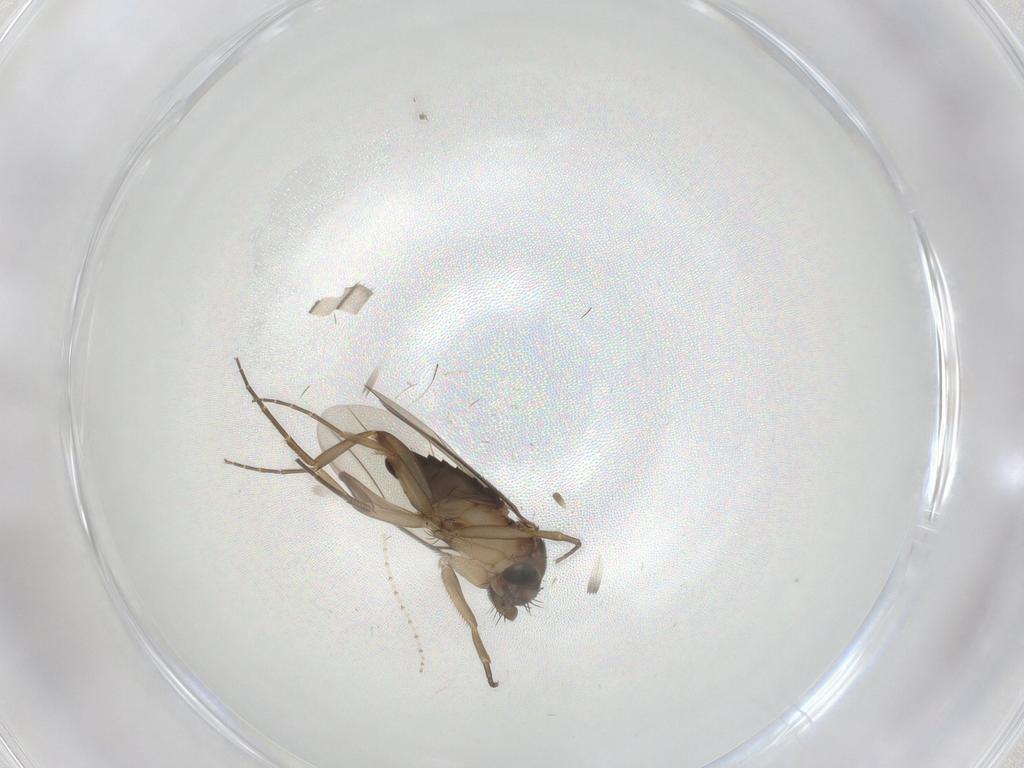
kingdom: Animalia
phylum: Arthropoda
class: Insecta
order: Diptera
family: Phoridae
